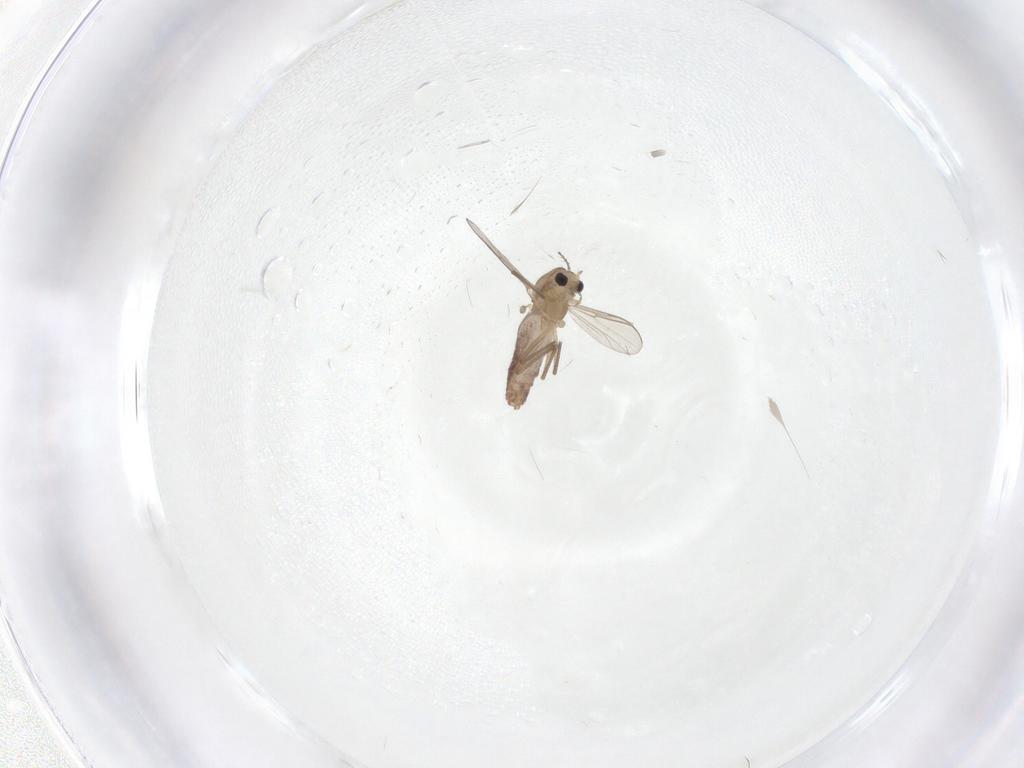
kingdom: Animalia
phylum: Arthropoda
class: Insecta
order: Diptera
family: Chironomidae
